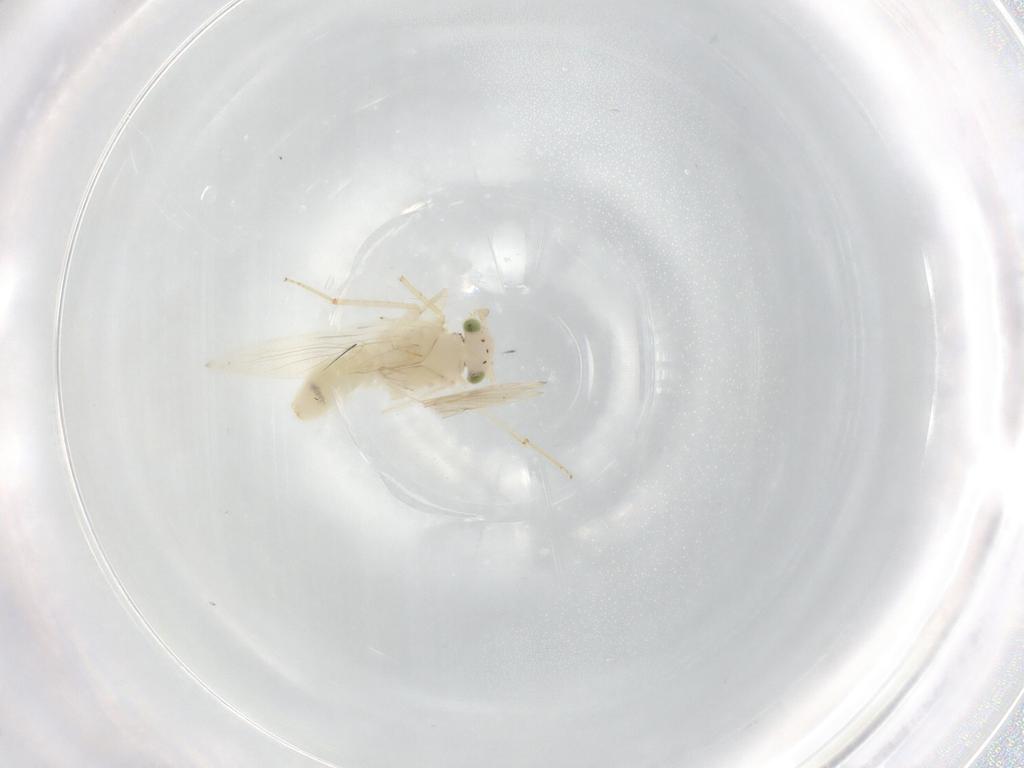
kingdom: Animalia
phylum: Arthropoda
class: Insecta
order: Psocodea
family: Lepidopsocidae
